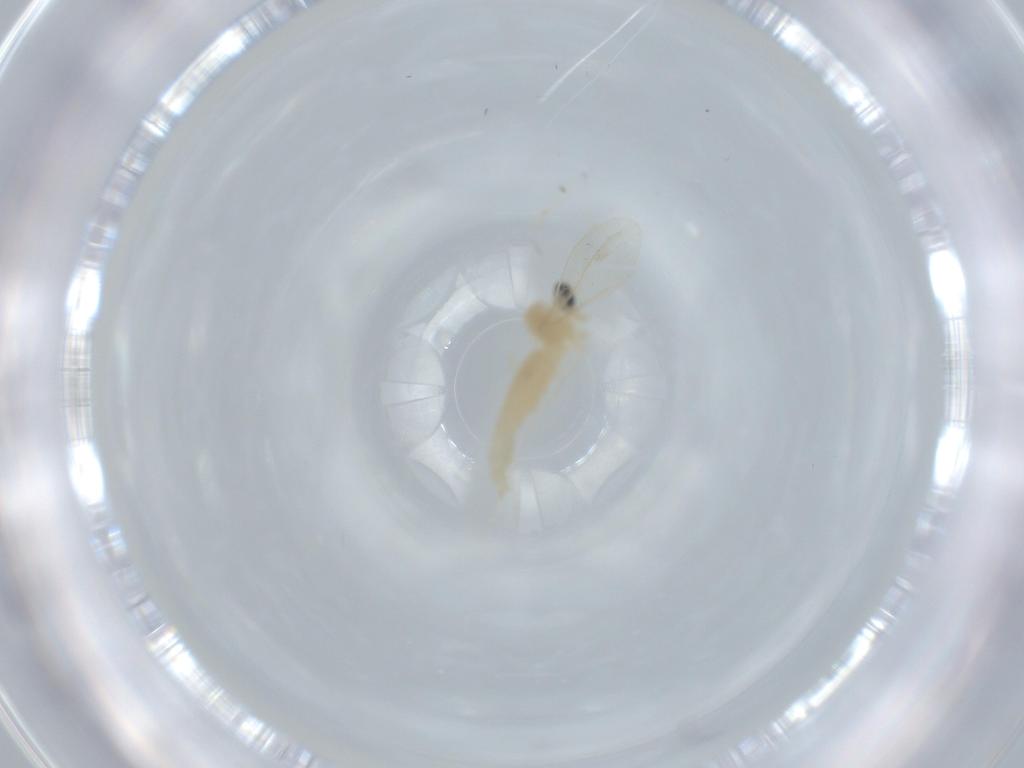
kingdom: Animalia
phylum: Arthropoda
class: Insecta
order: Diptera
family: Cecidomyiidae
